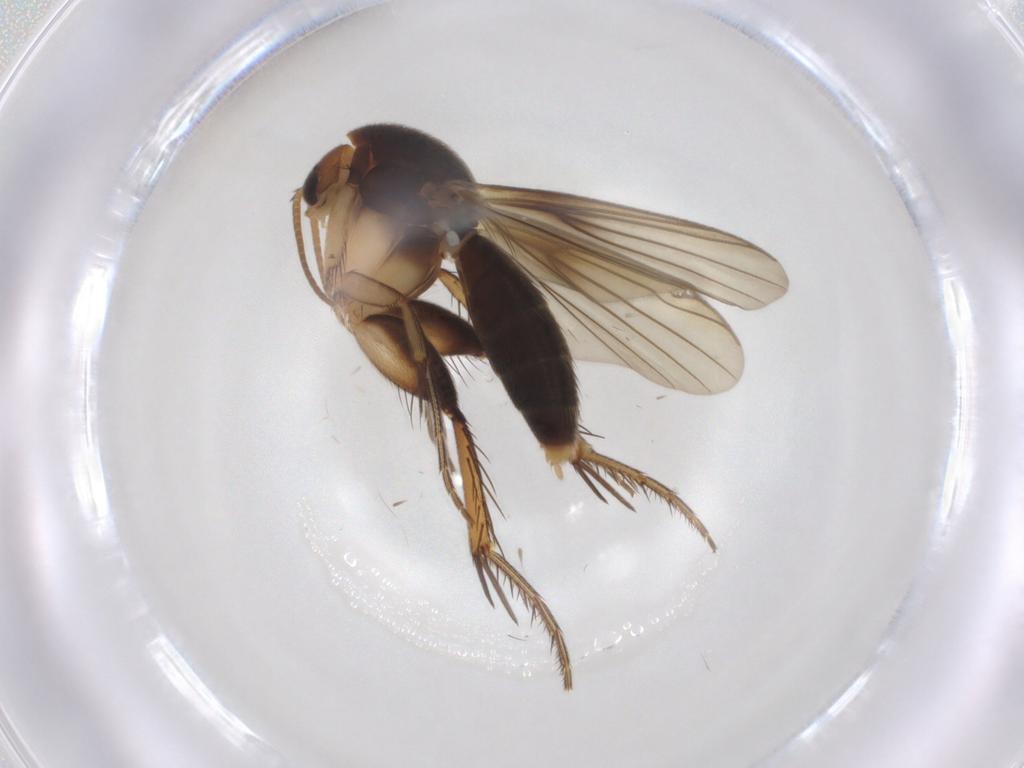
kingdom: Animalia
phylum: Arthropoda
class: Insecta
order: Diptera
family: Mycetophilidae
